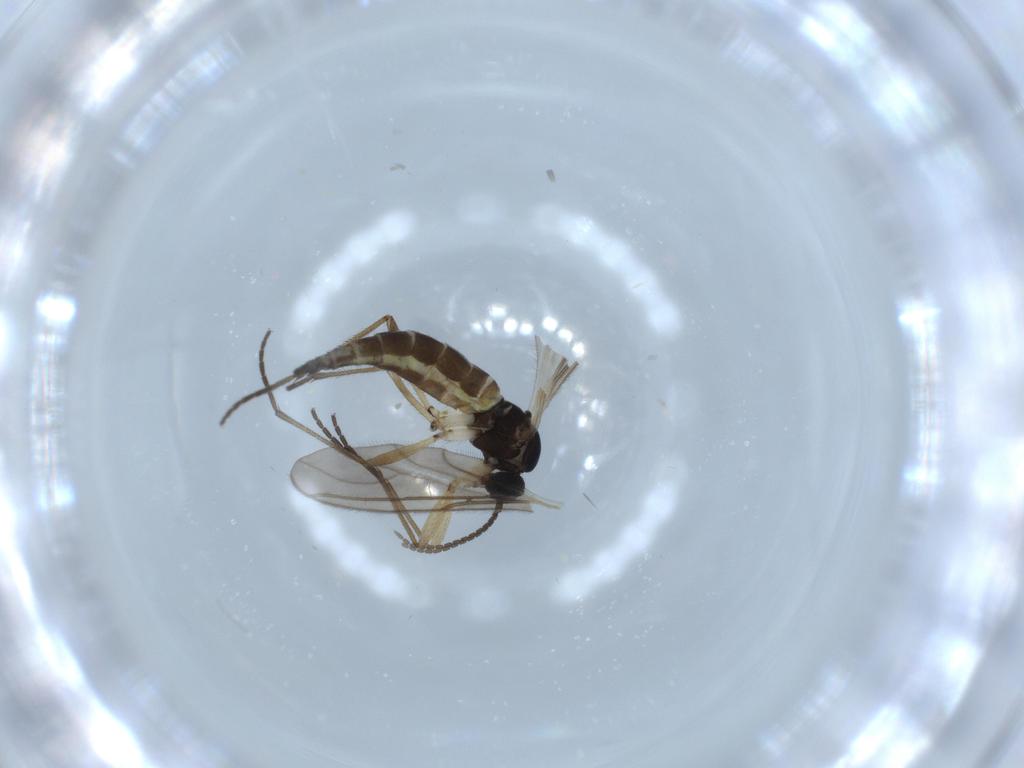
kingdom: Animalia
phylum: Arthropoda
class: Insecta
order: Diptera
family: Sciaridae
